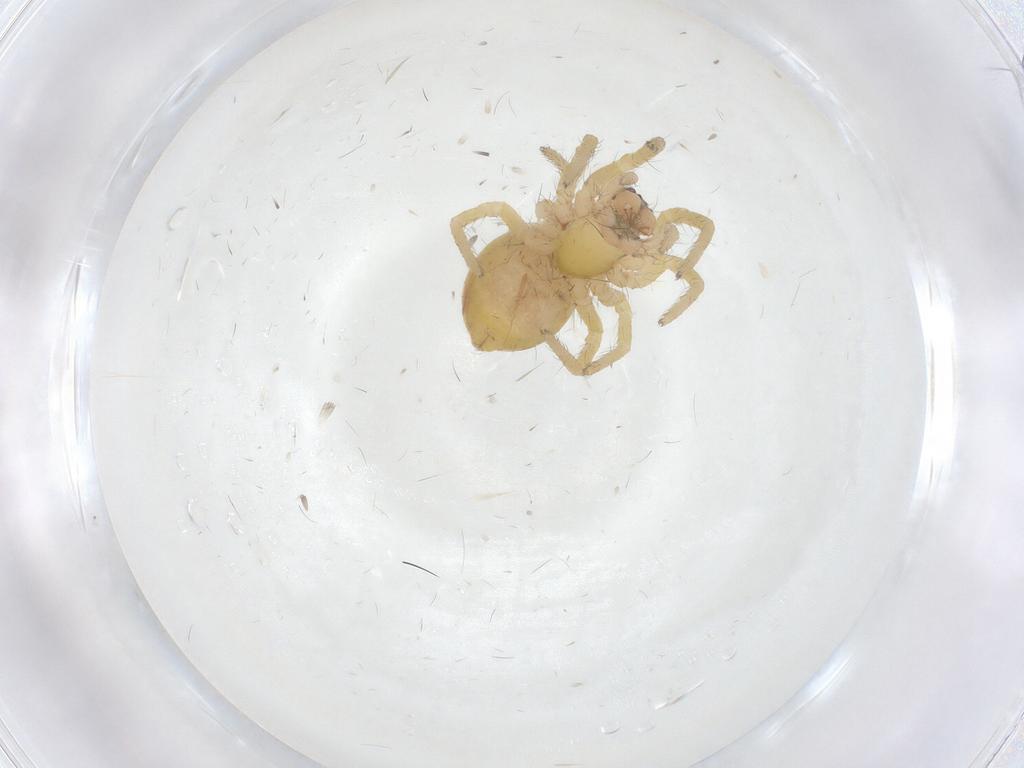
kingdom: Animalia
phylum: Arthropoda
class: Arachnida
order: Araneae
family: Mimetidae
